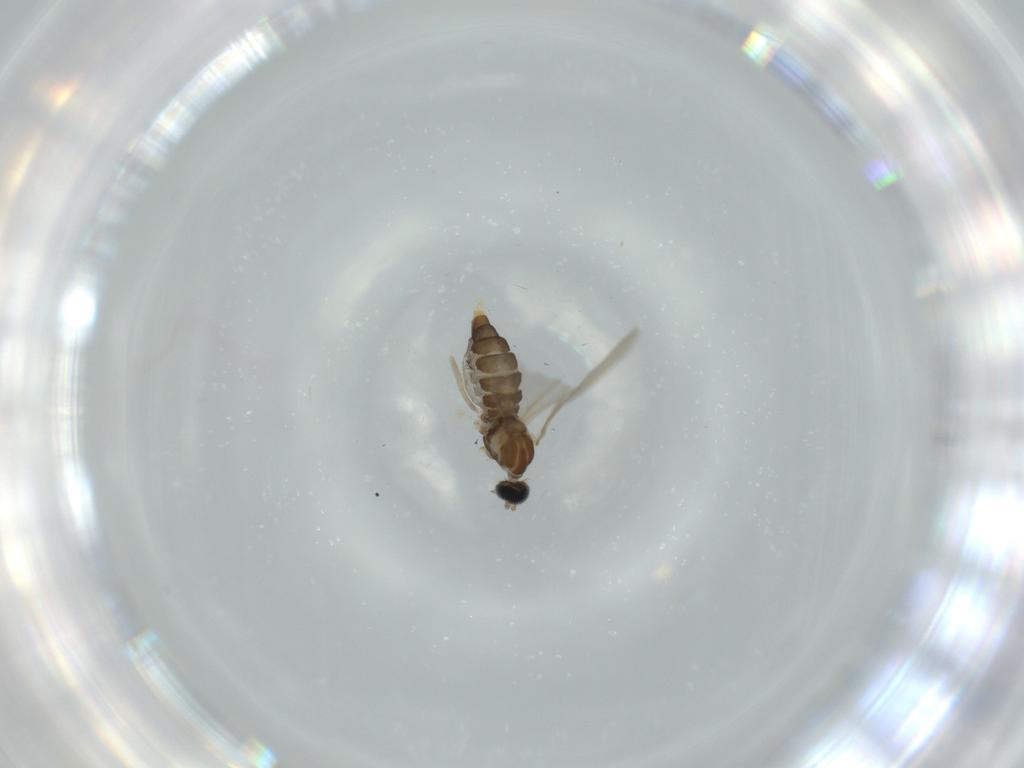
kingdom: Animalia
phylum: Arthropoda
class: Insecta
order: Diptera
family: Cecidomyiidae
